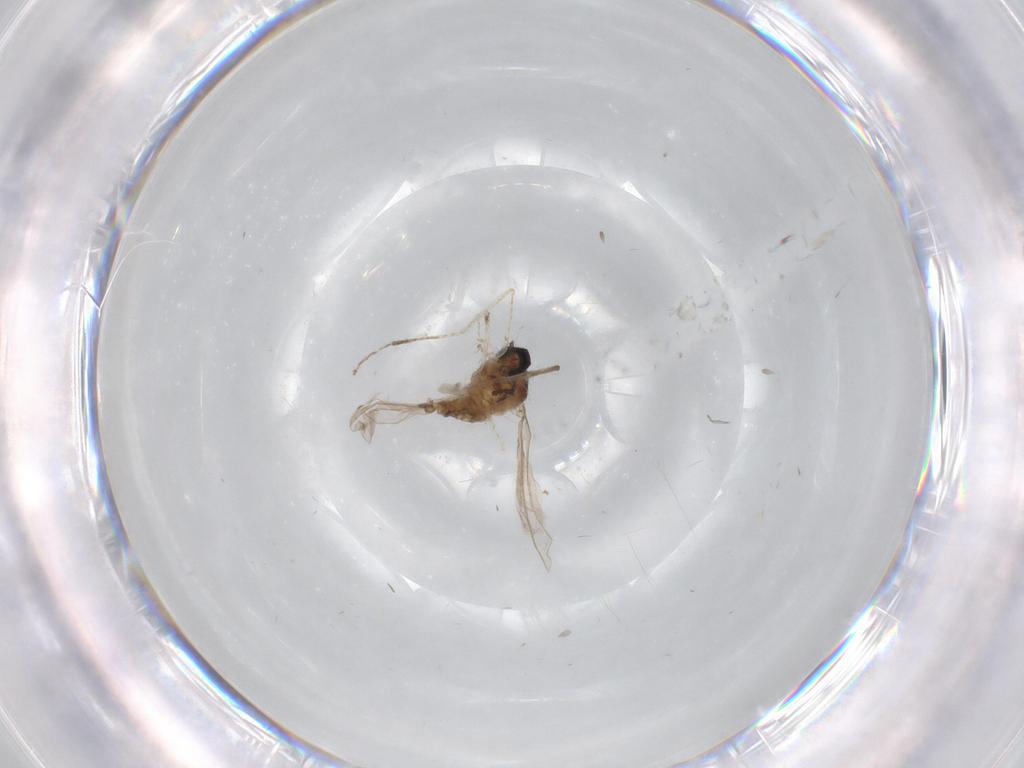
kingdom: Animalia
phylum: Arthropoda
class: Insecta
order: Diptera
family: Cecidomyiidae
